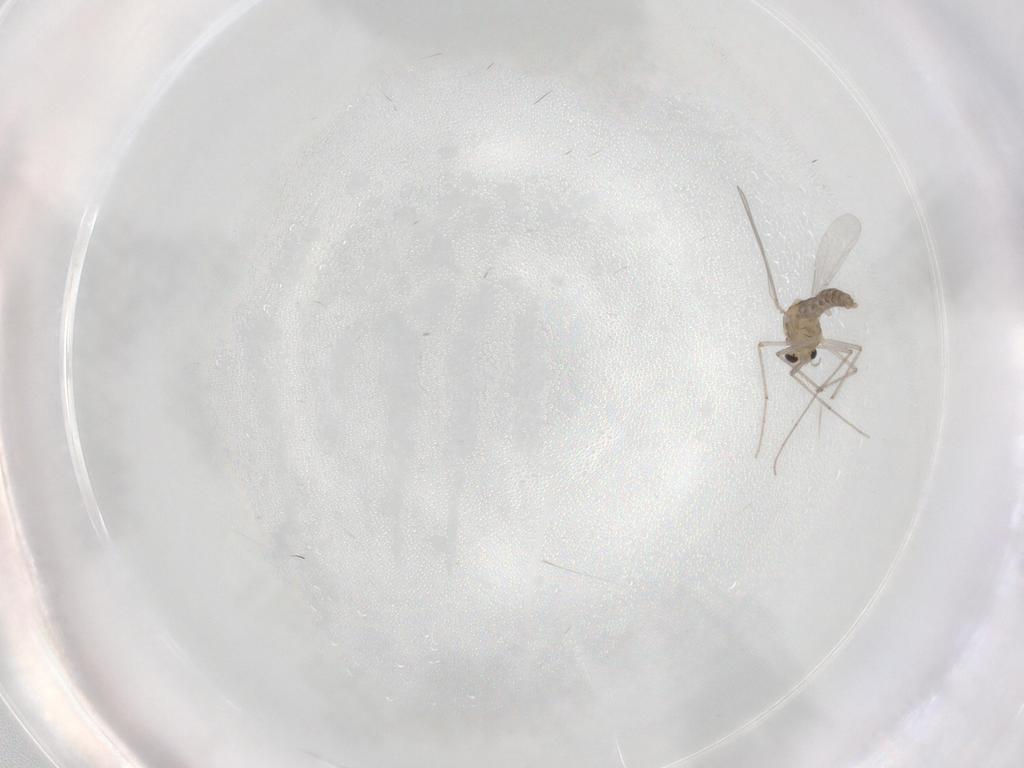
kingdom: Animalia
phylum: Arthropoda
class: Insecta
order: Diptera
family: Chironomidae
